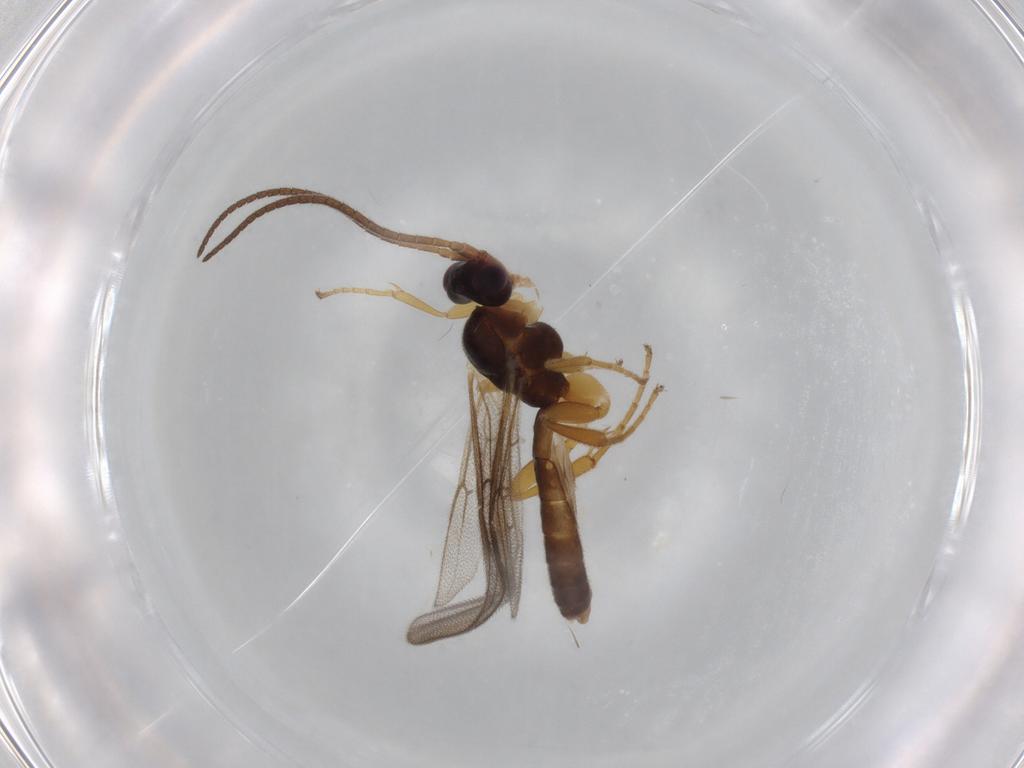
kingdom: Animalia
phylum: Arthropoda
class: Insecta
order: Hymenoptera
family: Ichneumonidae
